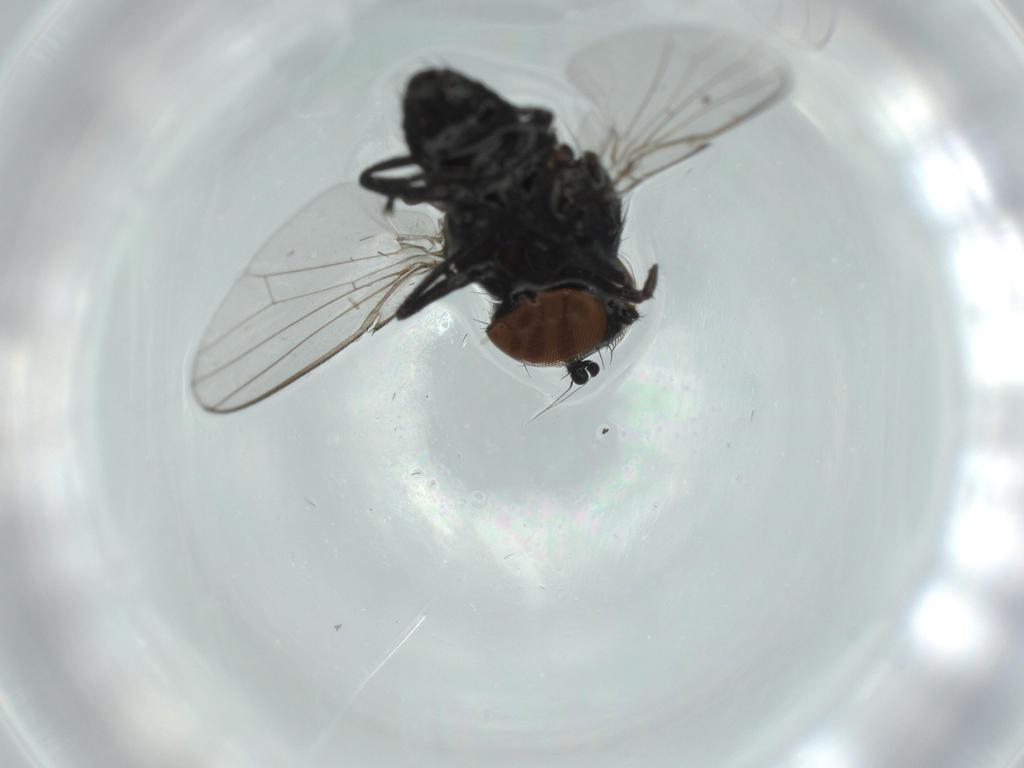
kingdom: Animalia
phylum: Arthropoda
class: Insecta
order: Diptera
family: Milichiidae
